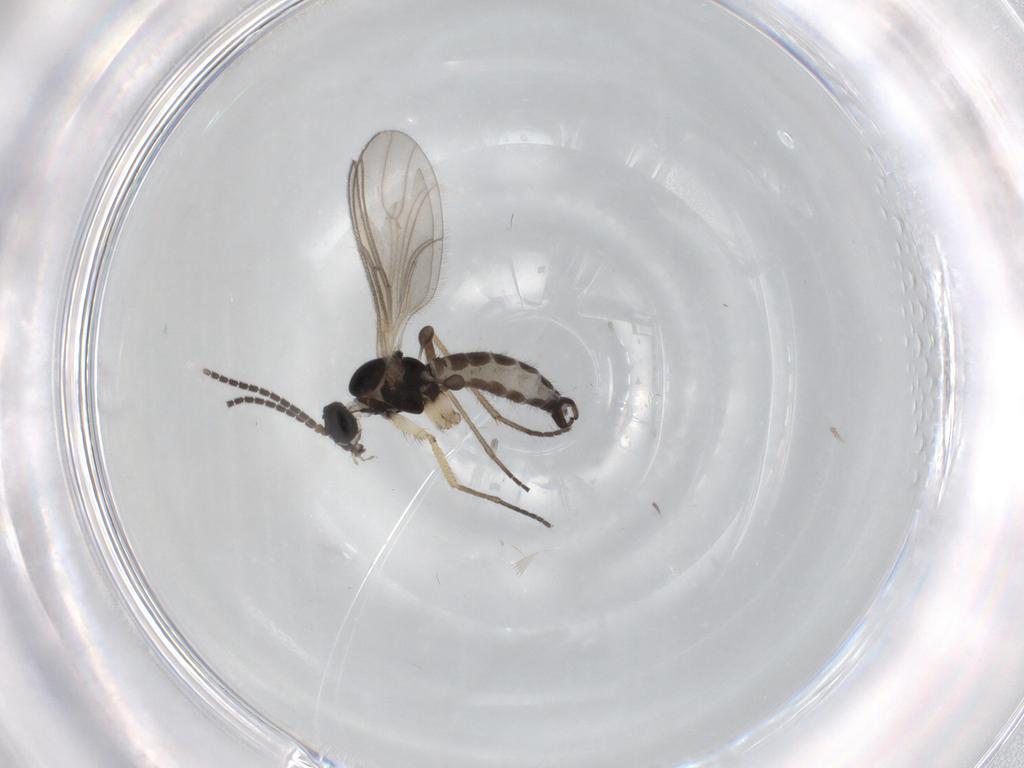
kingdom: Animalia
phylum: Arthropoda
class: Insecta
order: Diptera
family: Sciaridae
